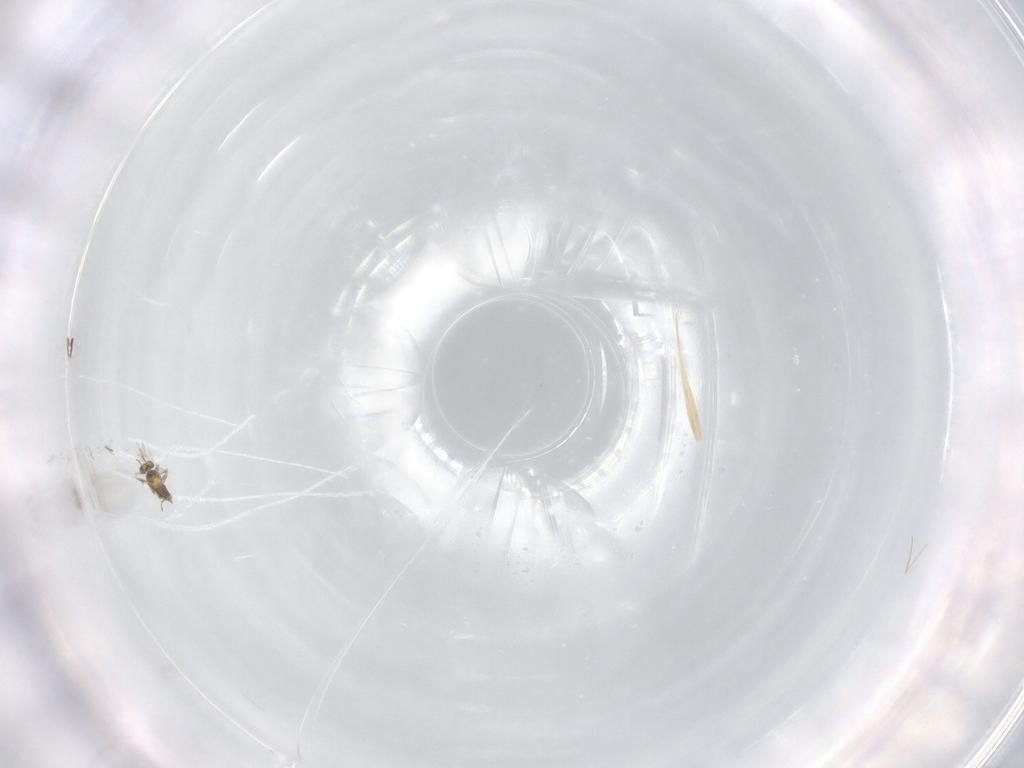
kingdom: Animalia
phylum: Arthropoda
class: Insecta
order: Hymenoptera
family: Mymaridae
